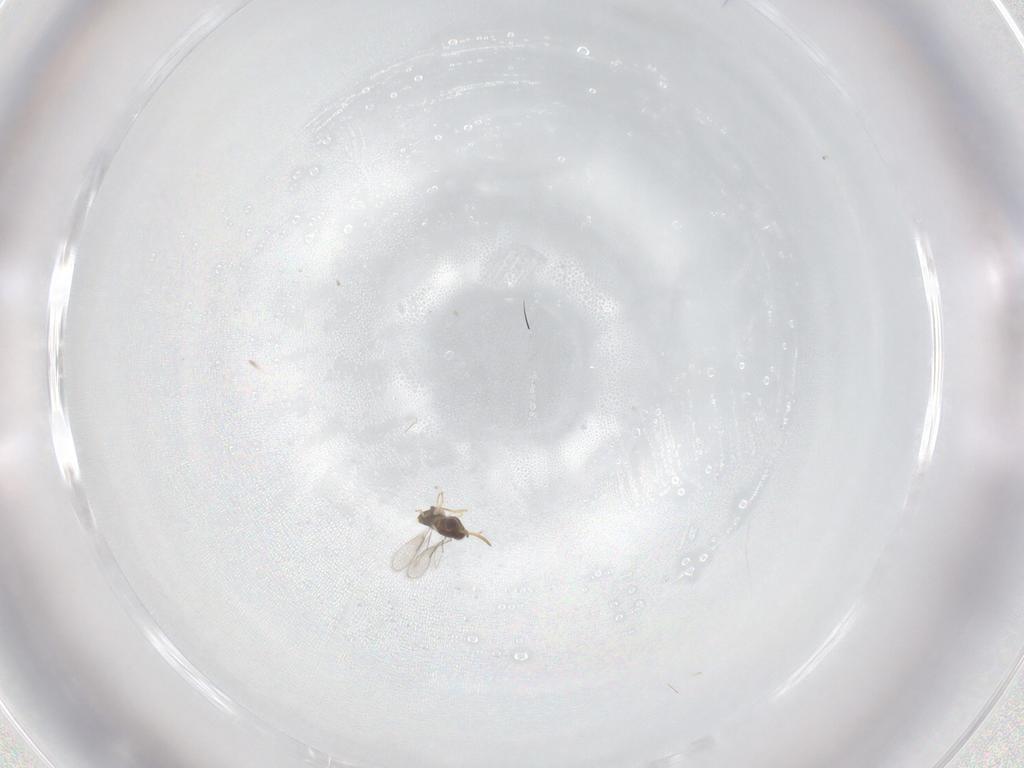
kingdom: Animalia
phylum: Arthropoda
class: Insecta
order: Hymenoptera
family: Aphelinidae
